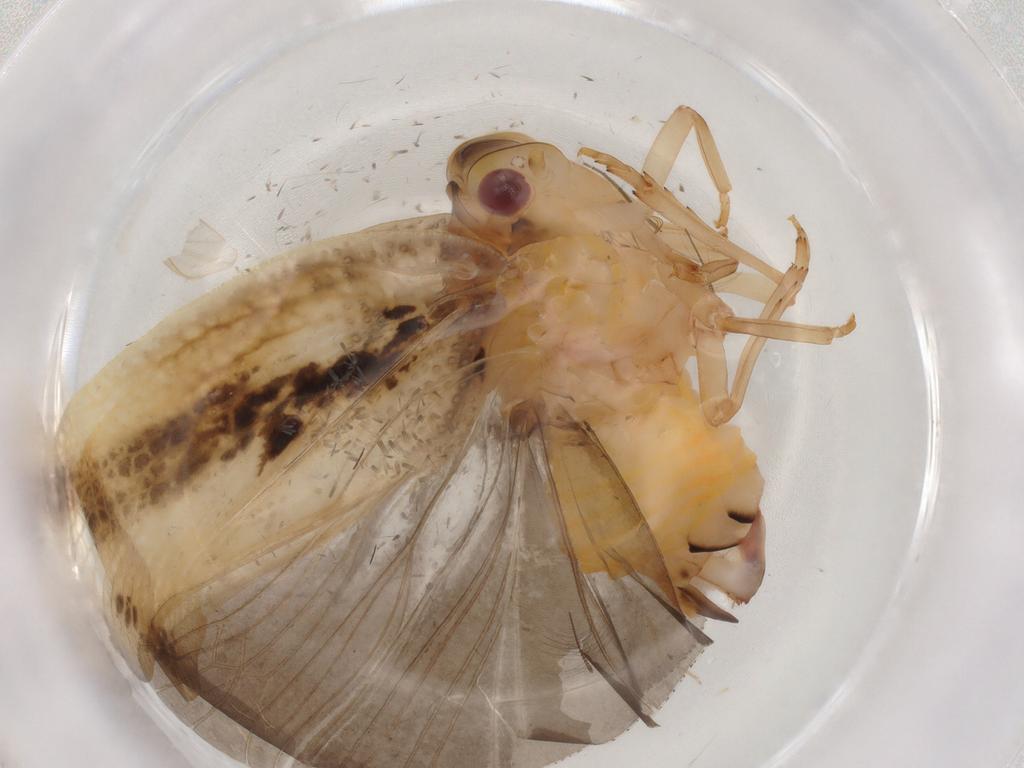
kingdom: Animalia
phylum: Arthropoda
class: Insecta
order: Hemiptera
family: Flatidae
